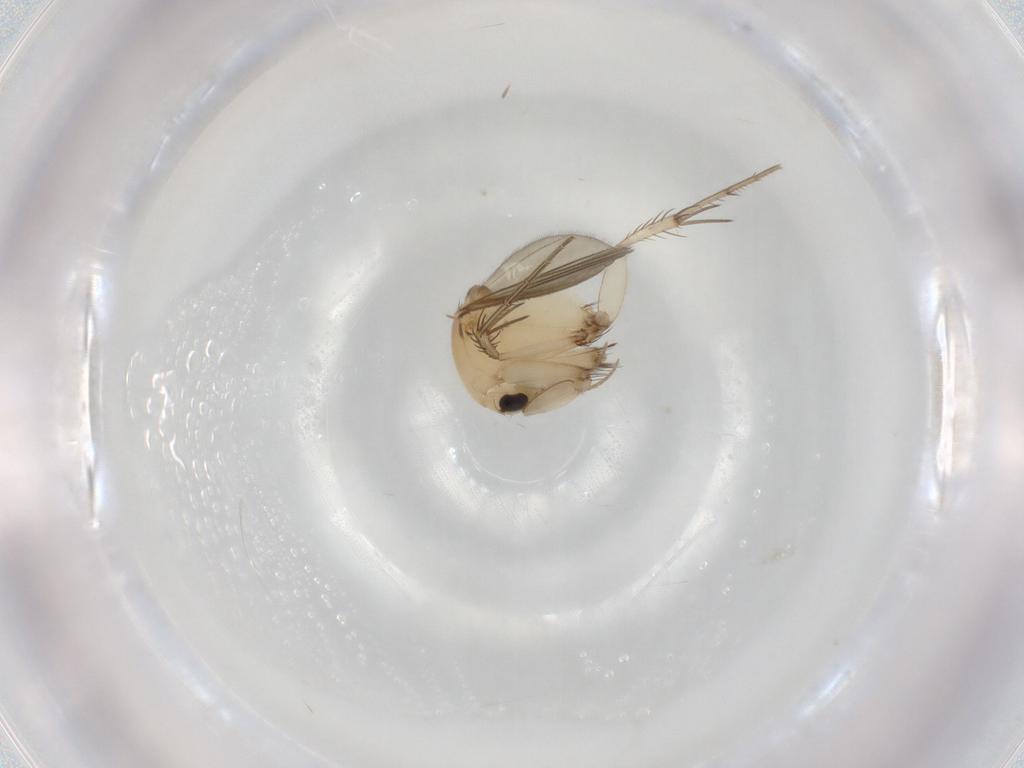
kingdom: Animalia
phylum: Arthropoda
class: Insecta
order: Diptera
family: Mycetophilidae
